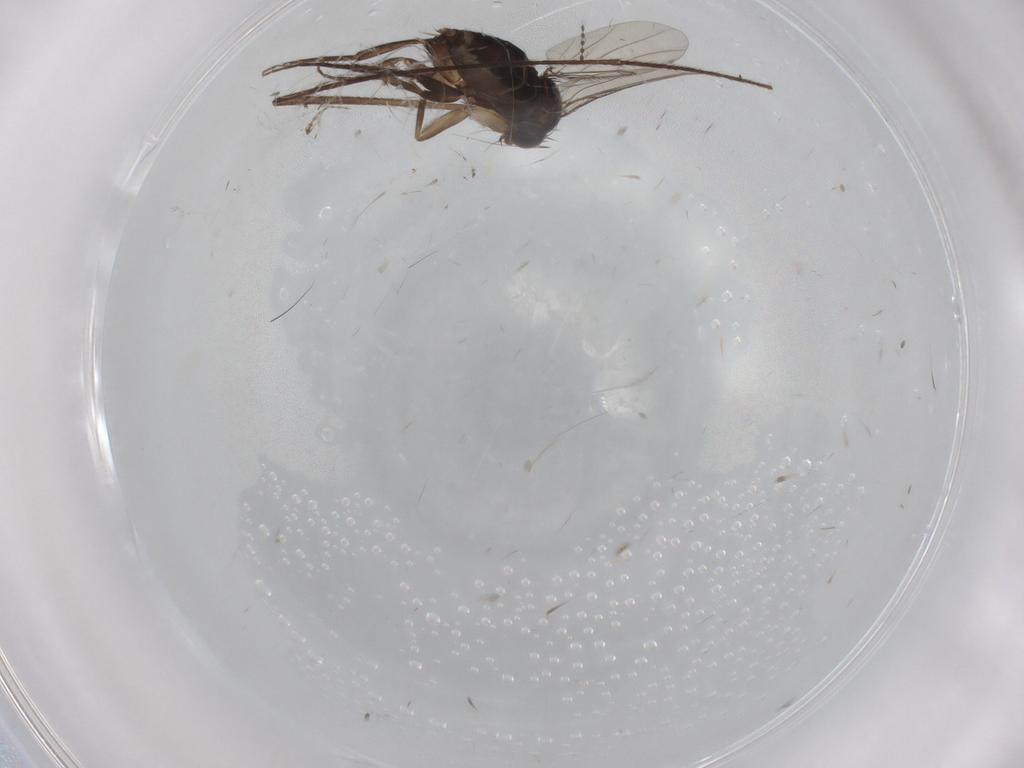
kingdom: Animalia
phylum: Arthropoda
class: Insecta
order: Diptera
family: Phoridae
